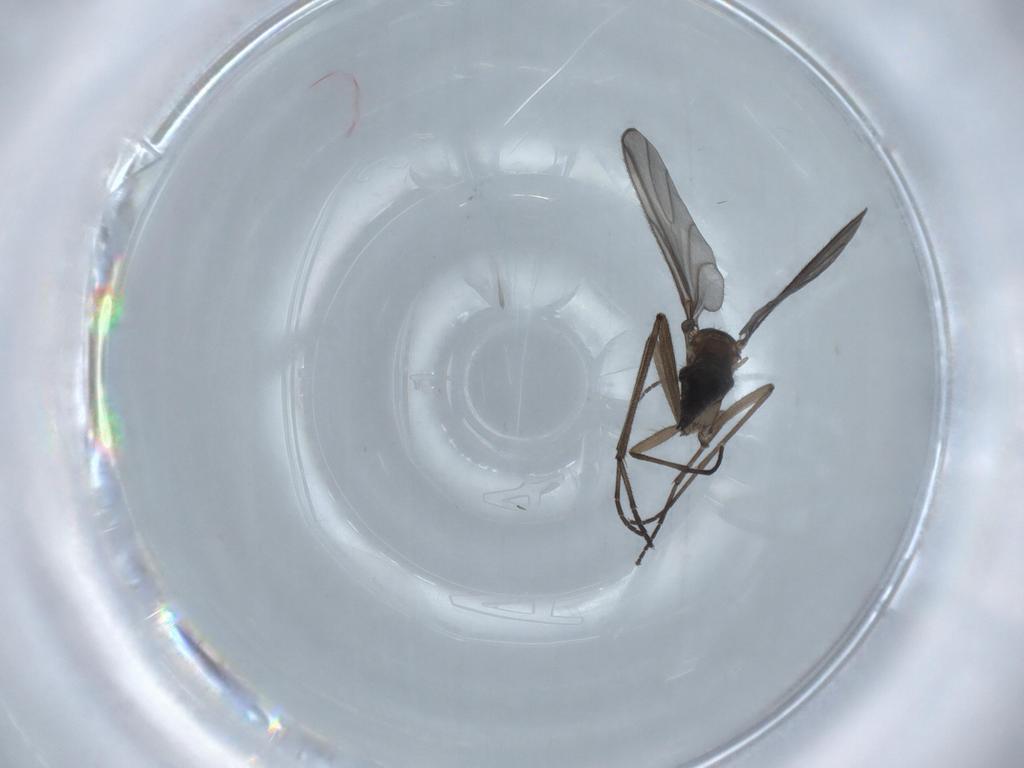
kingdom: Animalia
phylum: Arthropoda
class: Insecta
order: Diptera
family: Sciaridae
